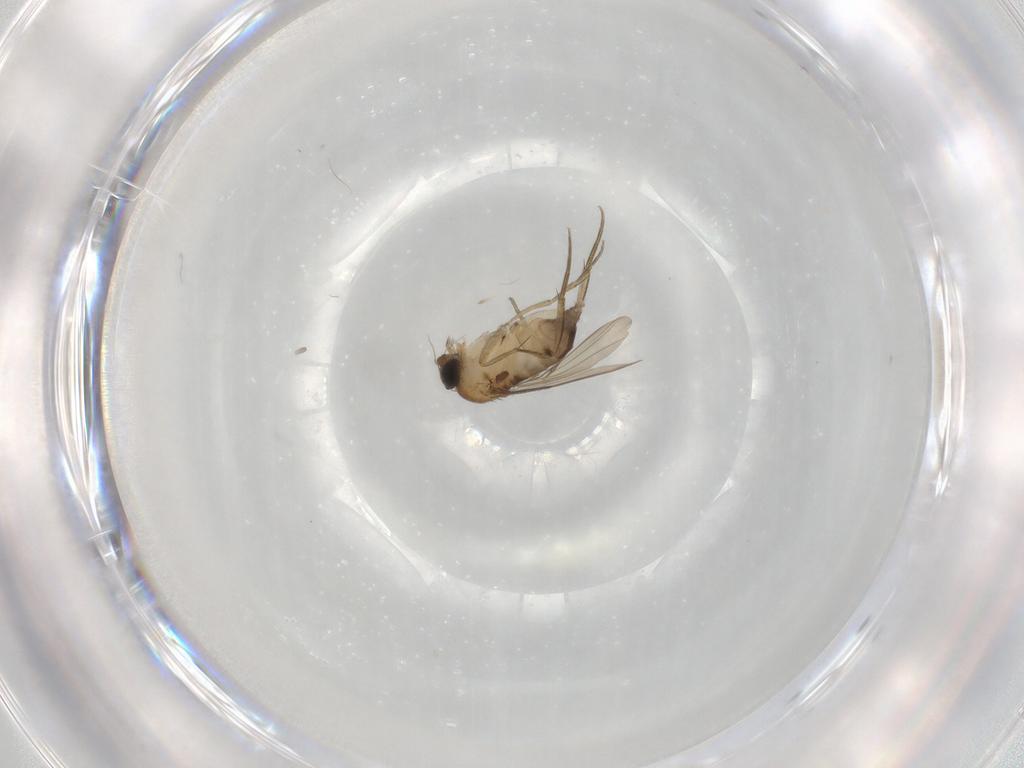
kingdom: Animalia
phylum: Arthropoda
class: Insecta
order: Diptera
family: Phoridae
